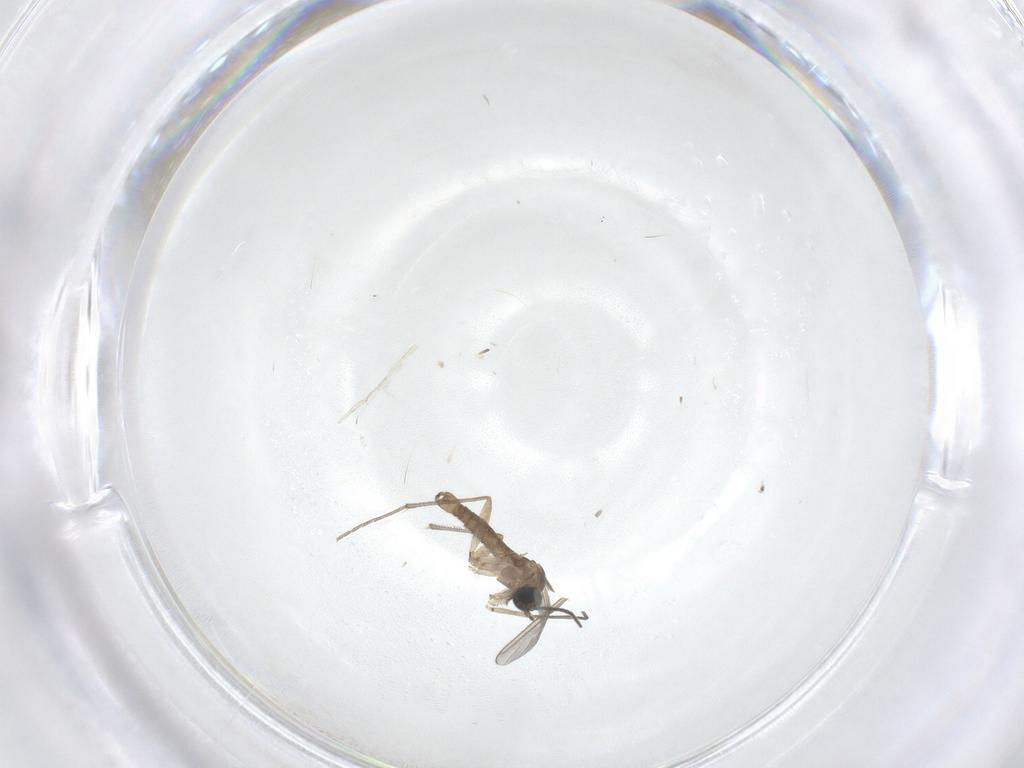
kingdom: Animalia
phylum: Arthropoda
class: Insecta
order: Diptera
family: Sciaridae
